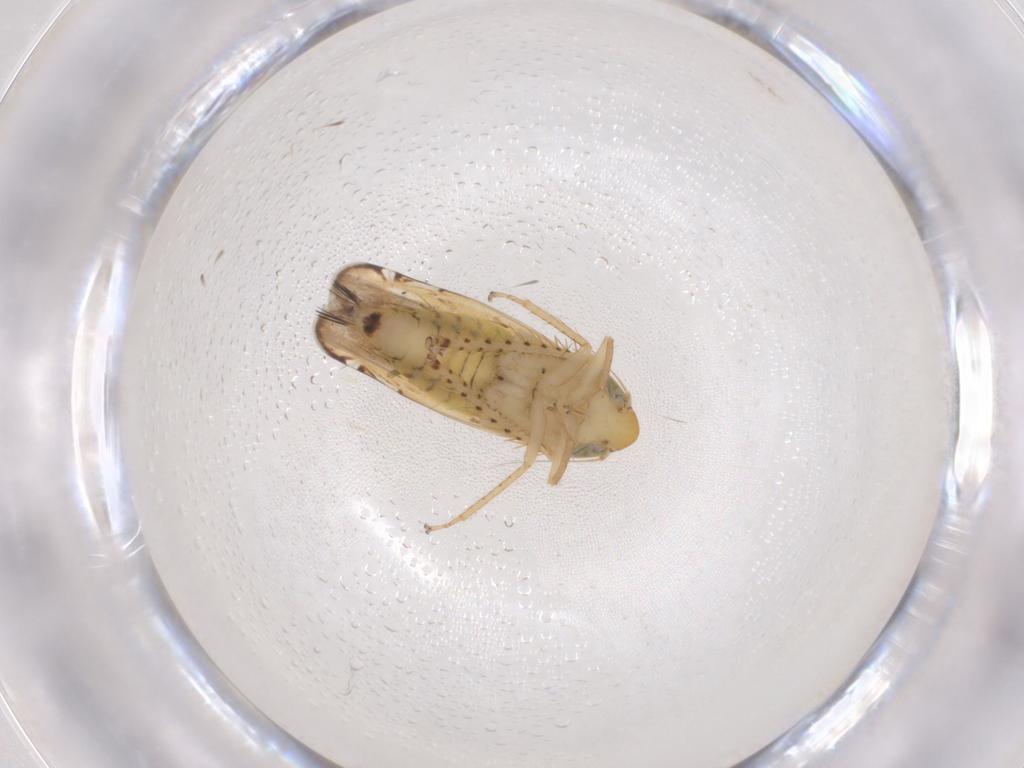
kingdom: Animalia
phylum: Arthropoda
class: Insecta
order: Hemiptera
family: Cicadellidae
